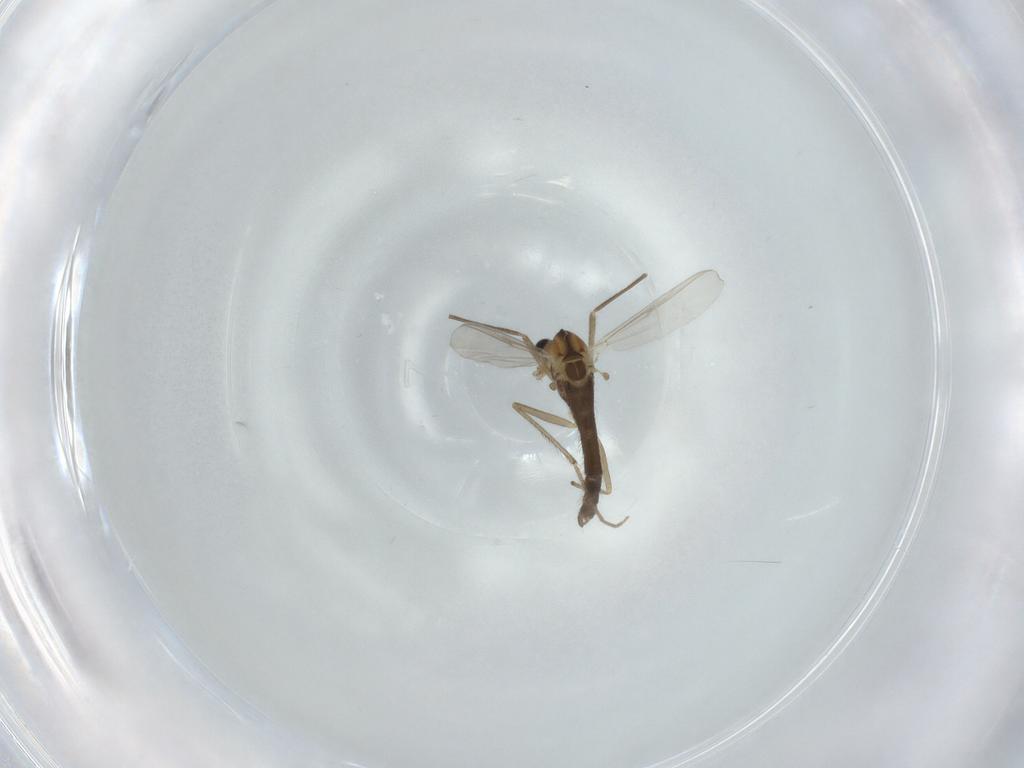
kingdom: Animalia
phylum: Arthropoda
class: Insecta
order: Diptera
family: Chironomidae
